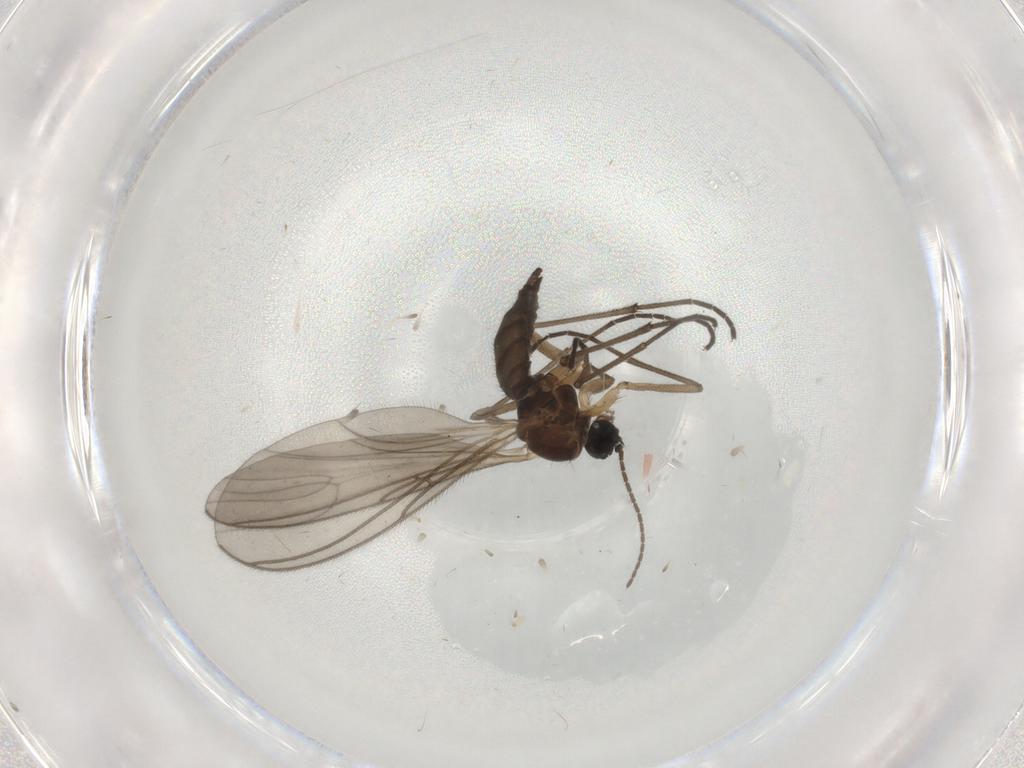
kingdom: Animalia
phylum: Arthropoda
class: Insecta
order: Diptera
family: Sciaridae
